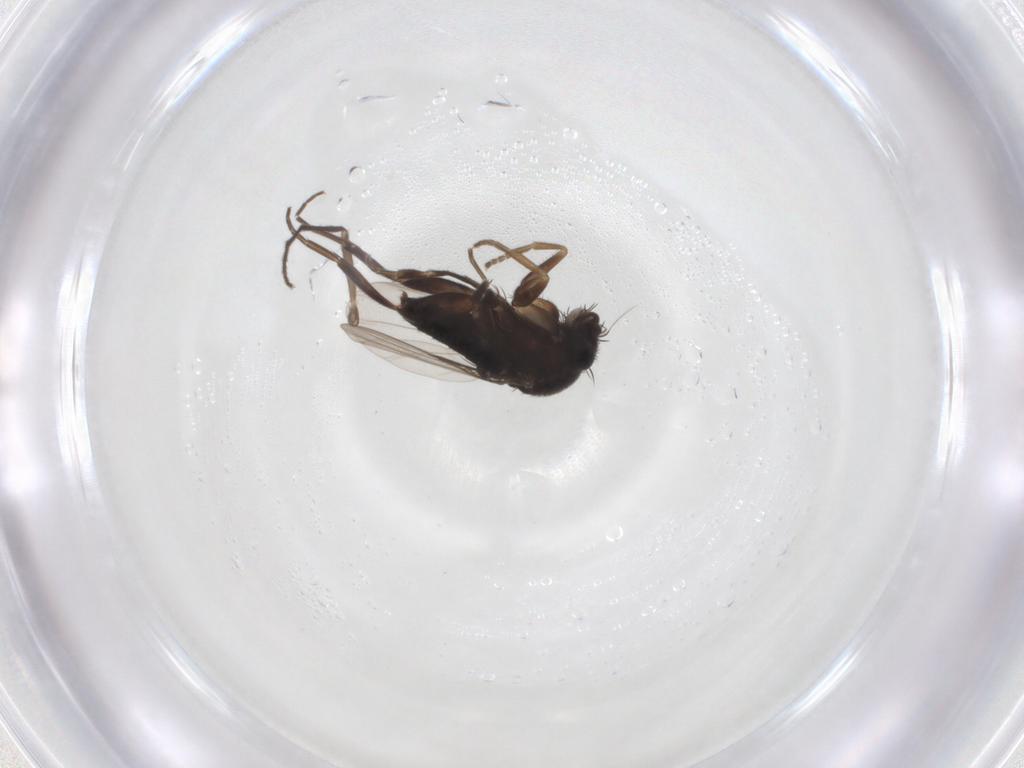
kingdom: Animalia
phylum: Arthropoda
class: Insecta
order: Diptera
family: Phoridae
